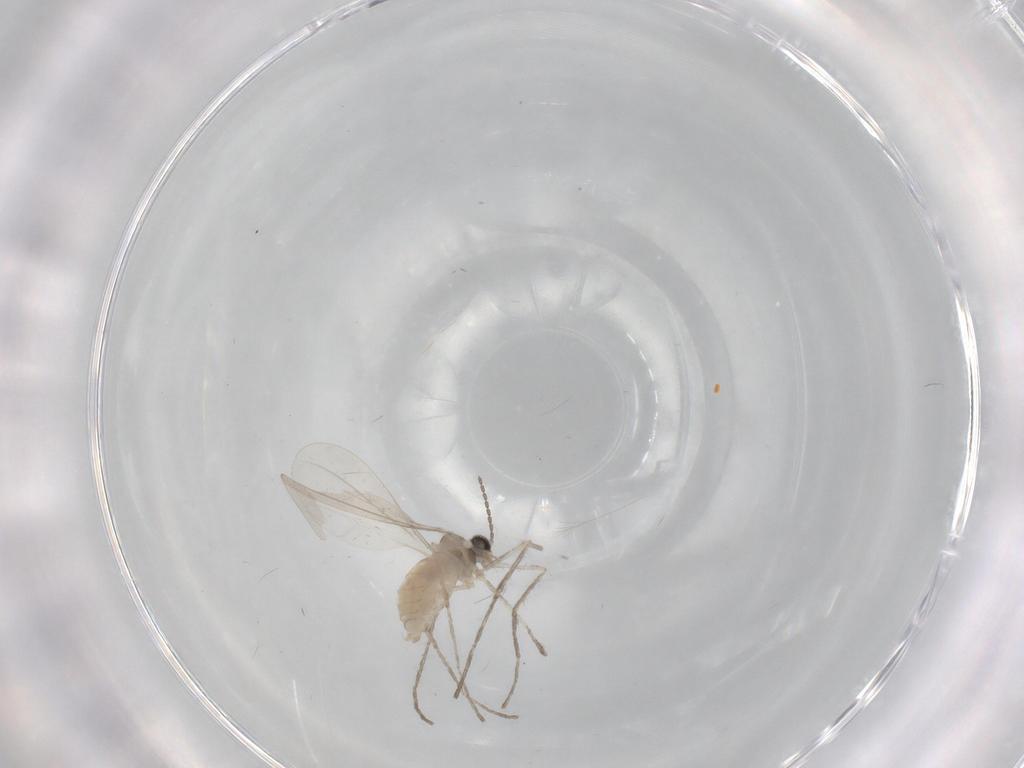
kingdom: Animalia
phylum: Arthropoda
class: Insecta
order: Diptera
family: Cecidomyiidae
